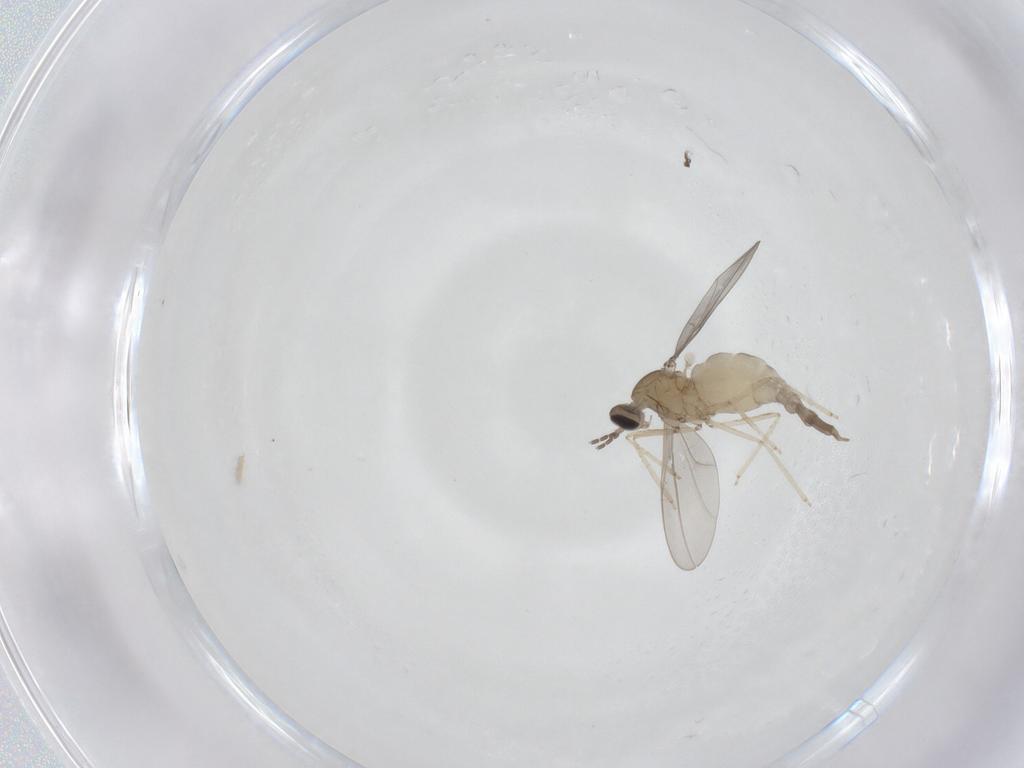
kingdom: Animalia
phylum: Arthropoda
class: Insecta
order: Diptera
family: Cecidomyiidae
